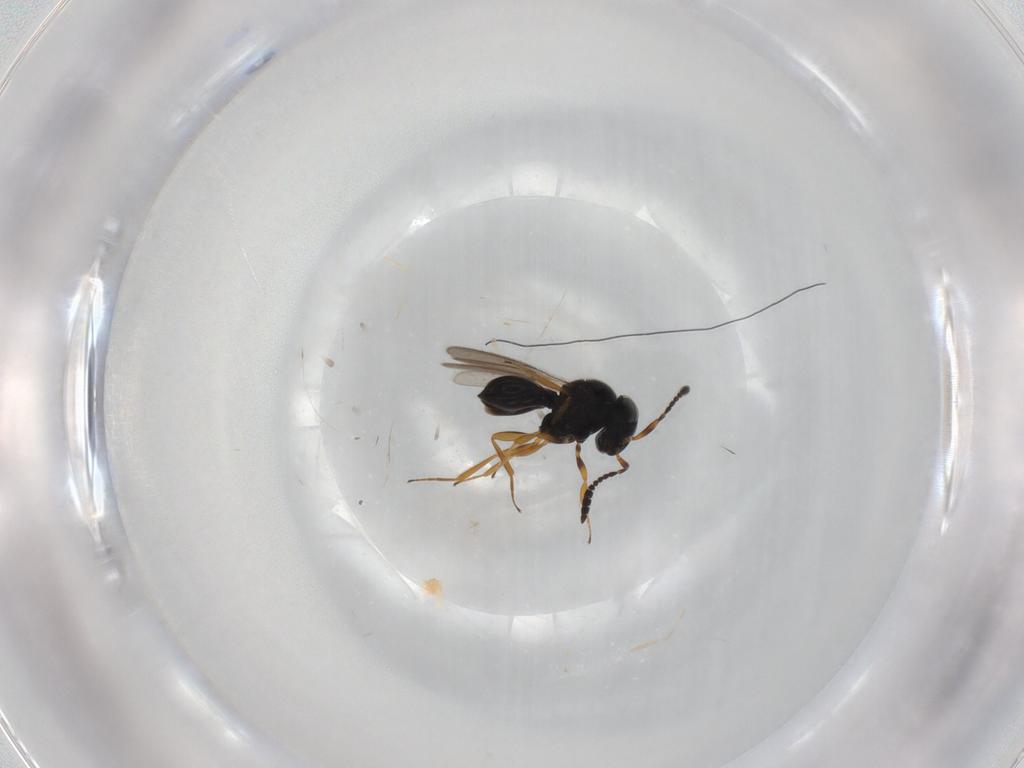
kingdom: Animalia
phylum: Arthropoda
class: Insecta
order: Hymenoptera
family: Scelionidae
